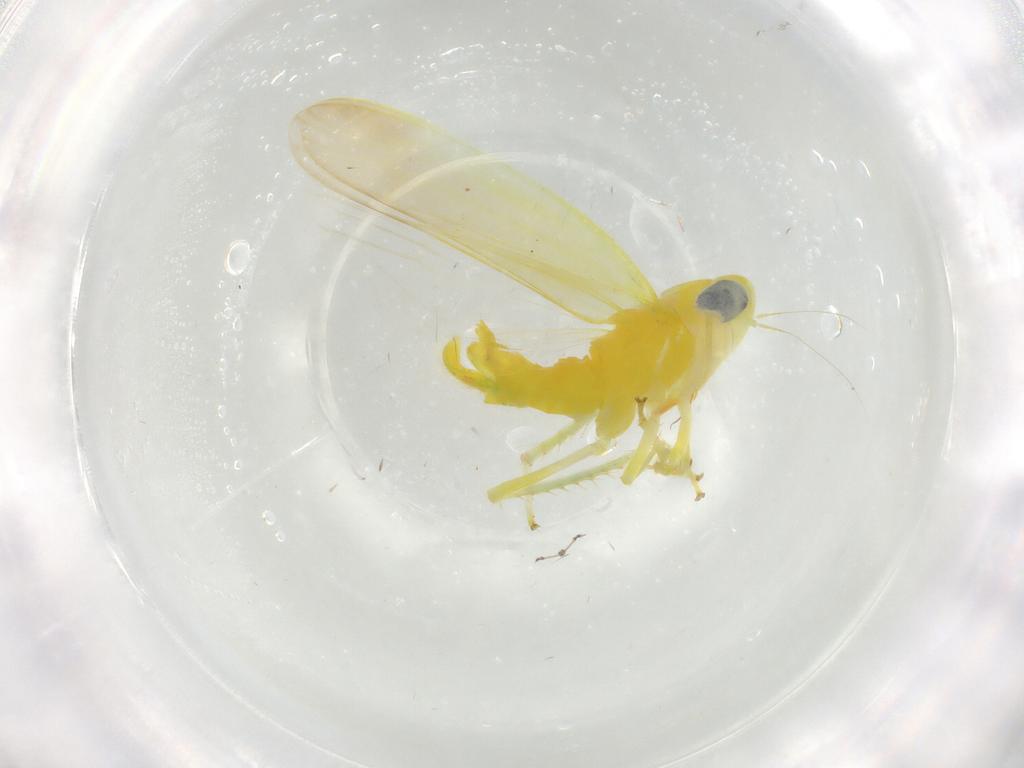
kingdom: Animalia
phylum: Arthropoda
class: Insecta
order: Hemiptera
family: Cicadellidae
